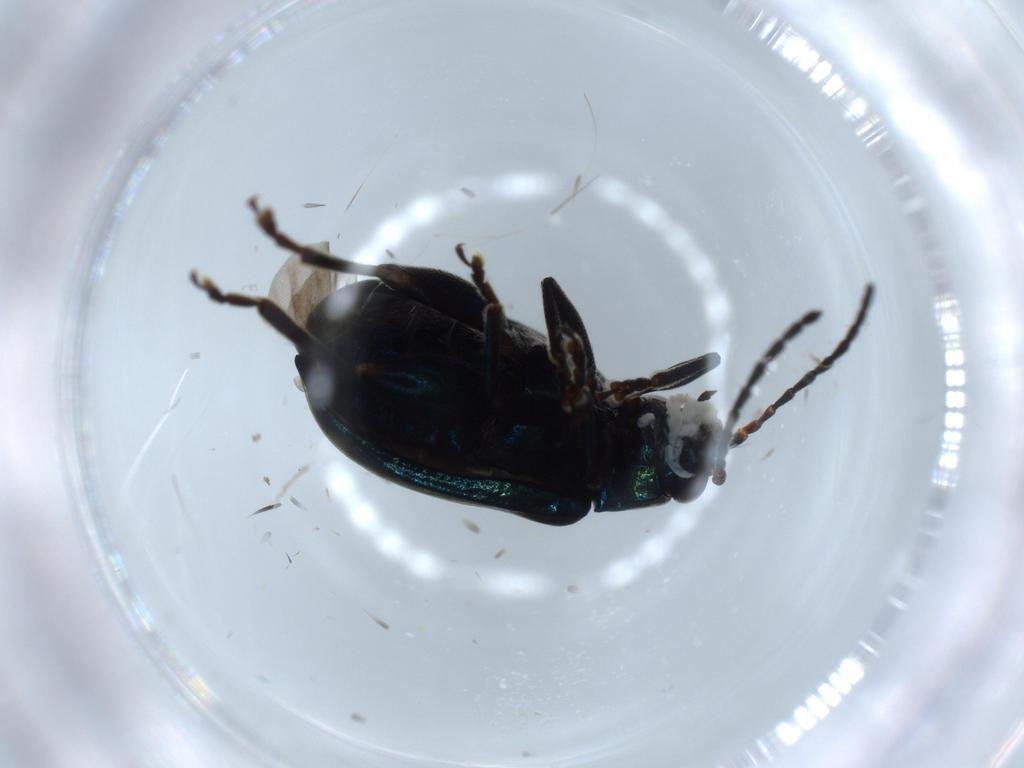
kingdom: Animalia
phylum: Arthropoda
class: Insecta
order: Coleoptera
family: Chrysomelidae
